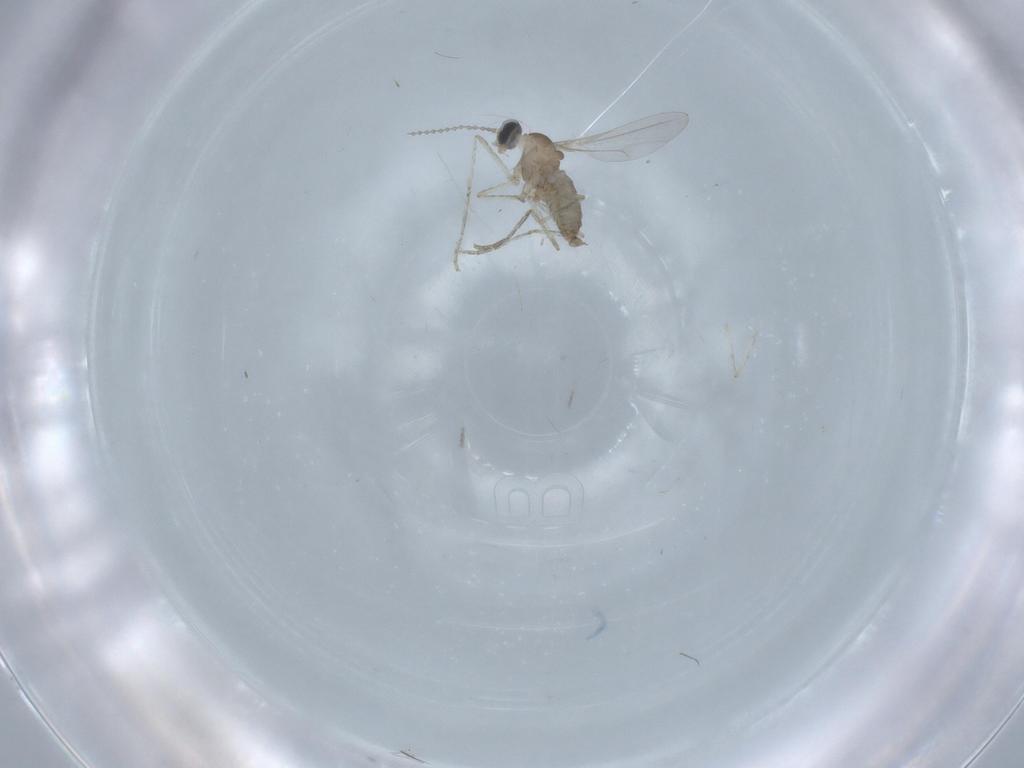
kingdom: Animalia
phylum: Arthropoda
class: Insecta
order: Diptera
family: Cecidomyiidae
